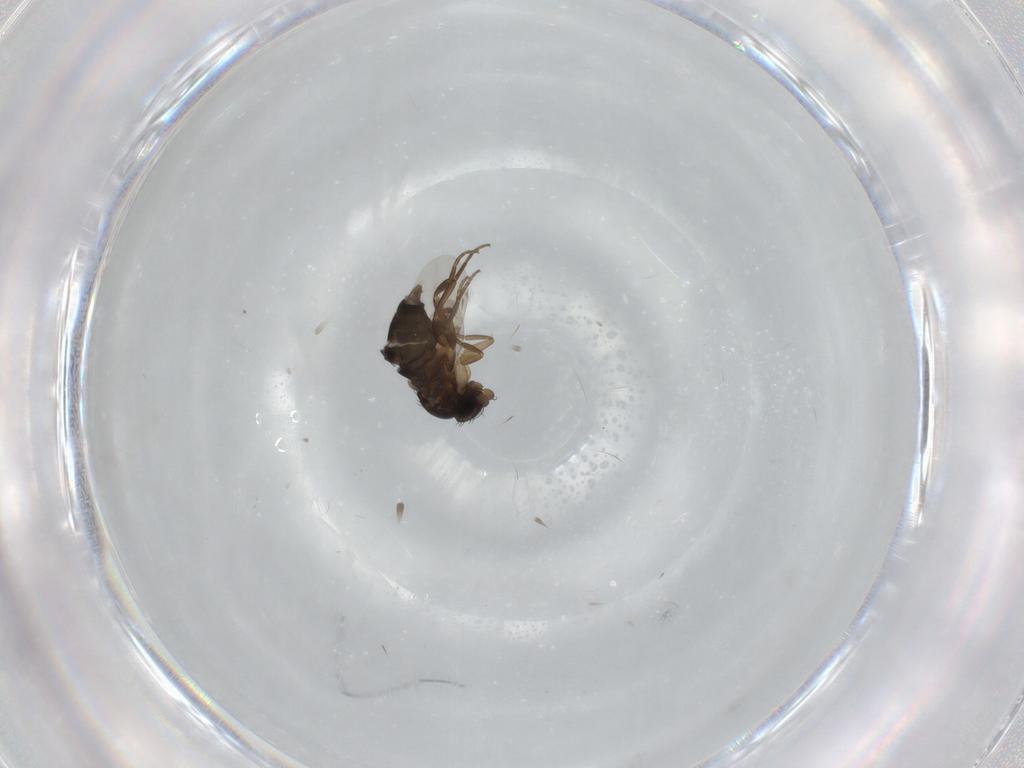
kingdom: Animalia
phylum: Arthropoda
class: Insecta
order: Diptera
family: Phoridae
